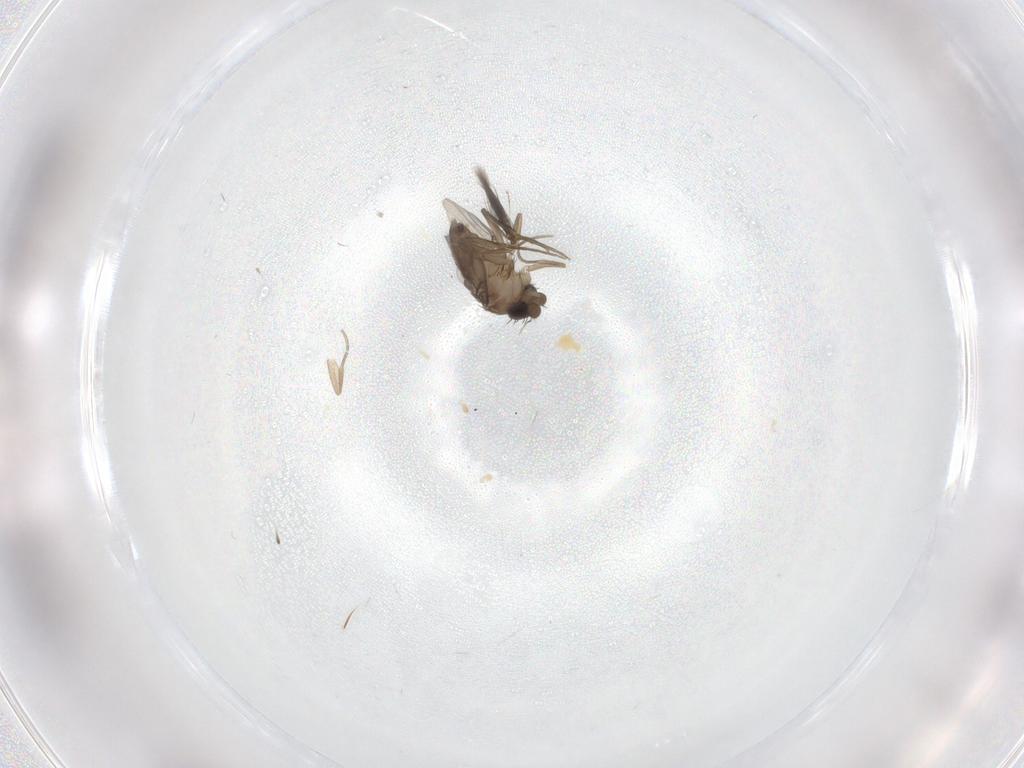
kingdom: Animalia
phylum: Arthropoda
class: Insecta
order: Diptera
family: Phoridae
